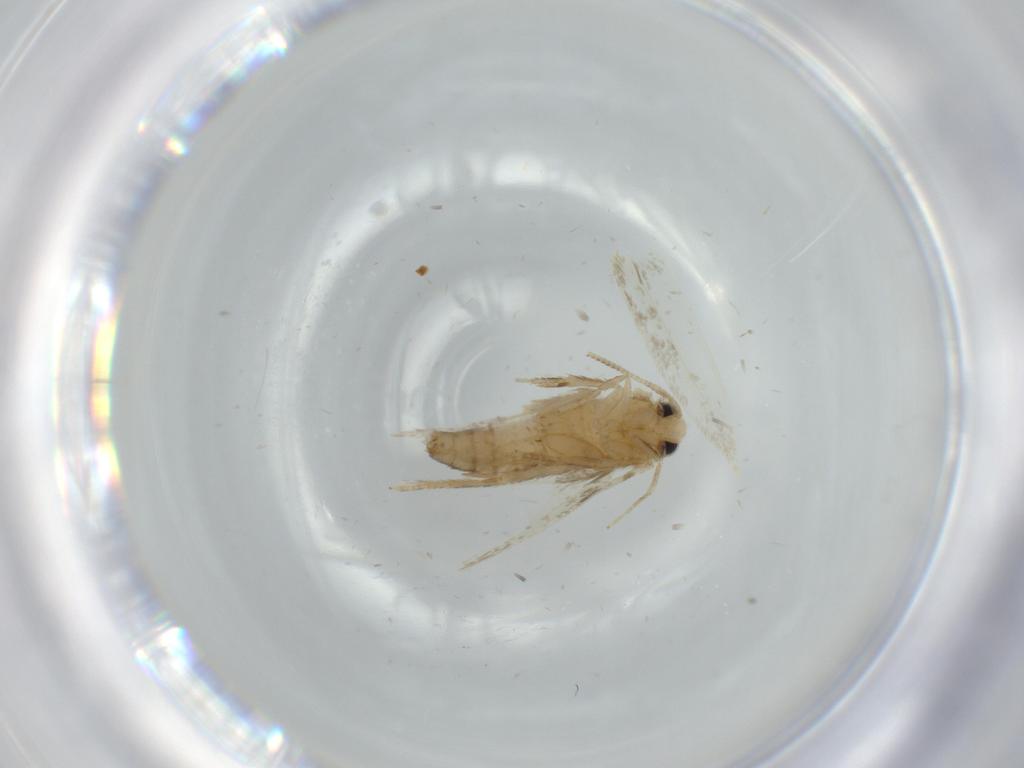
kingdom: Animalia
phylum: Arthropoda
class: Insecta
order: Lepidoptera
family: Opostegidae
